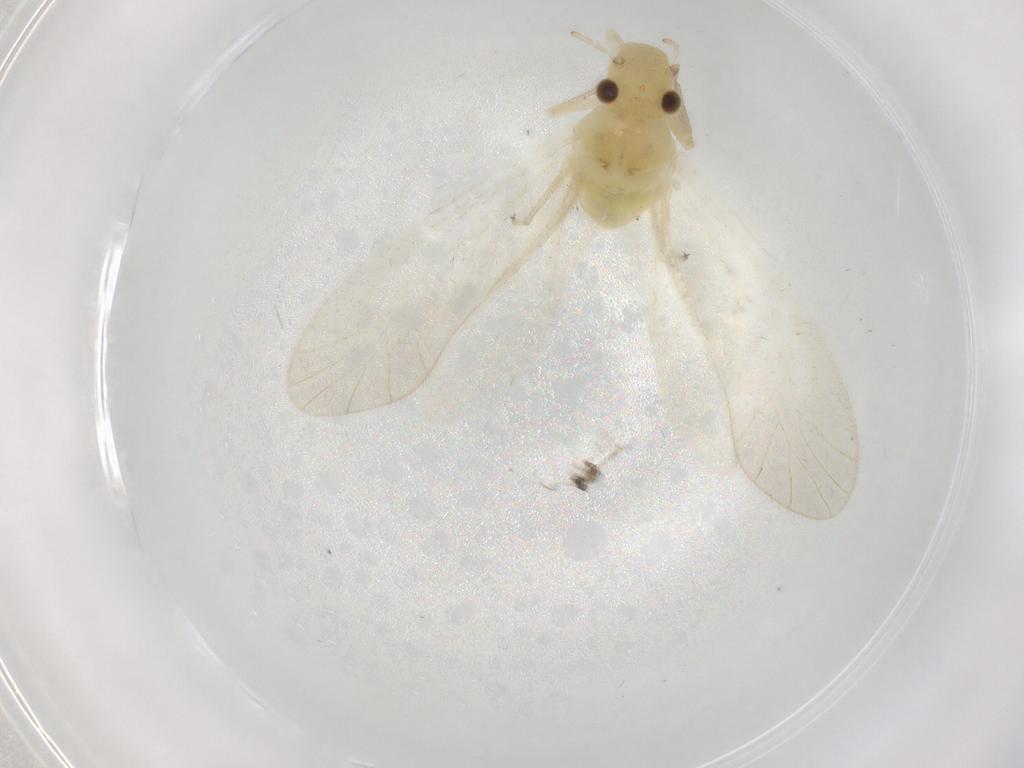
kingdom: Animalia
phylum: Arthropoda
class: Insecta
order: Psocodea
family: Caeciliusidae
